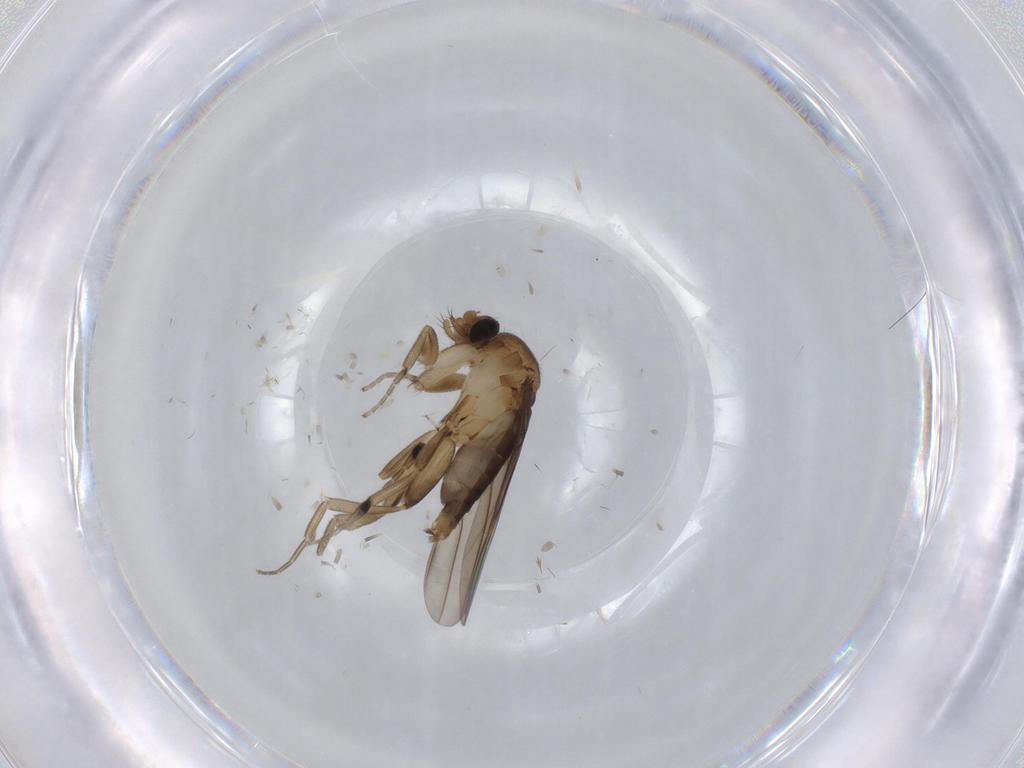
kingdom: Animalia
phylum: Arthropoda
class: Insecta
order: Diptera
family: Phoridae
